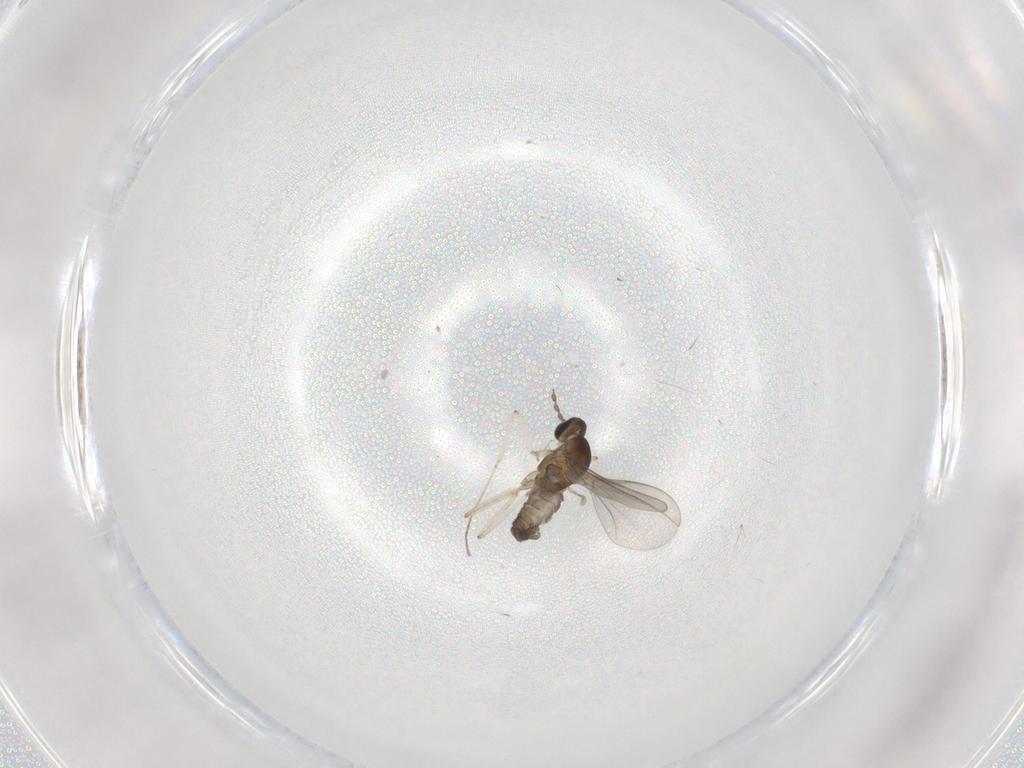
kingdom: Animalia
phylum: Arthropoda
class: Insecta
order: Diptera
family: Cecidomyiidae
